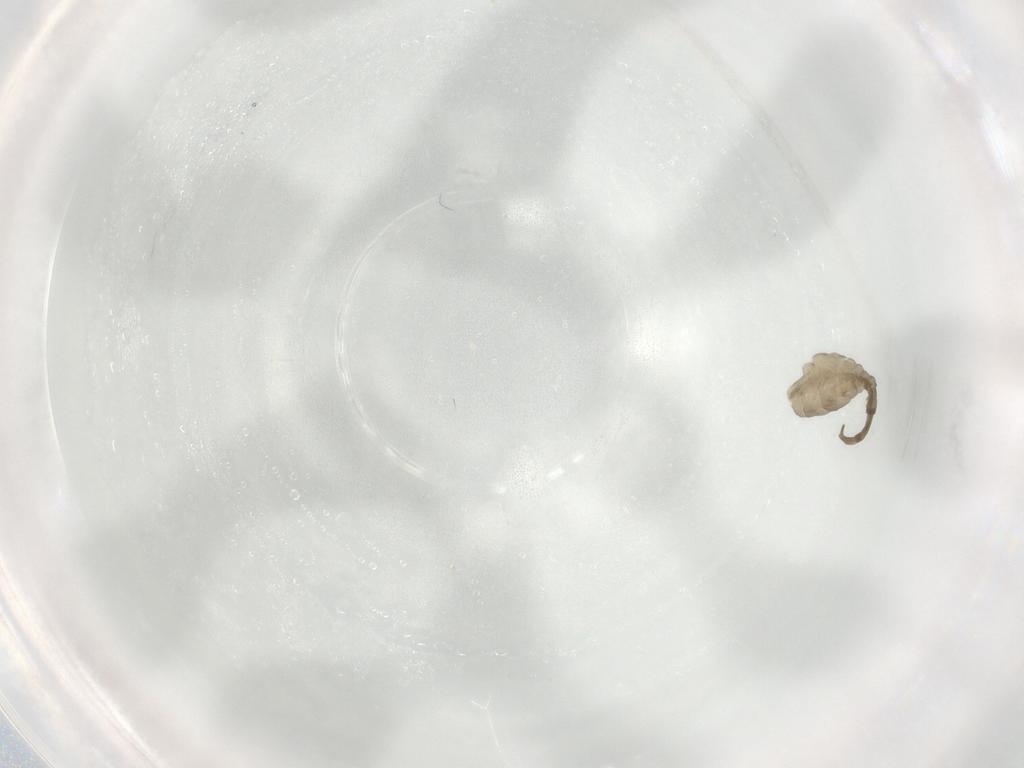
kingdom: Animalia
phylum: Arthropoda
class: Insecta
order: Diptera
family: Cecidomyiidae
